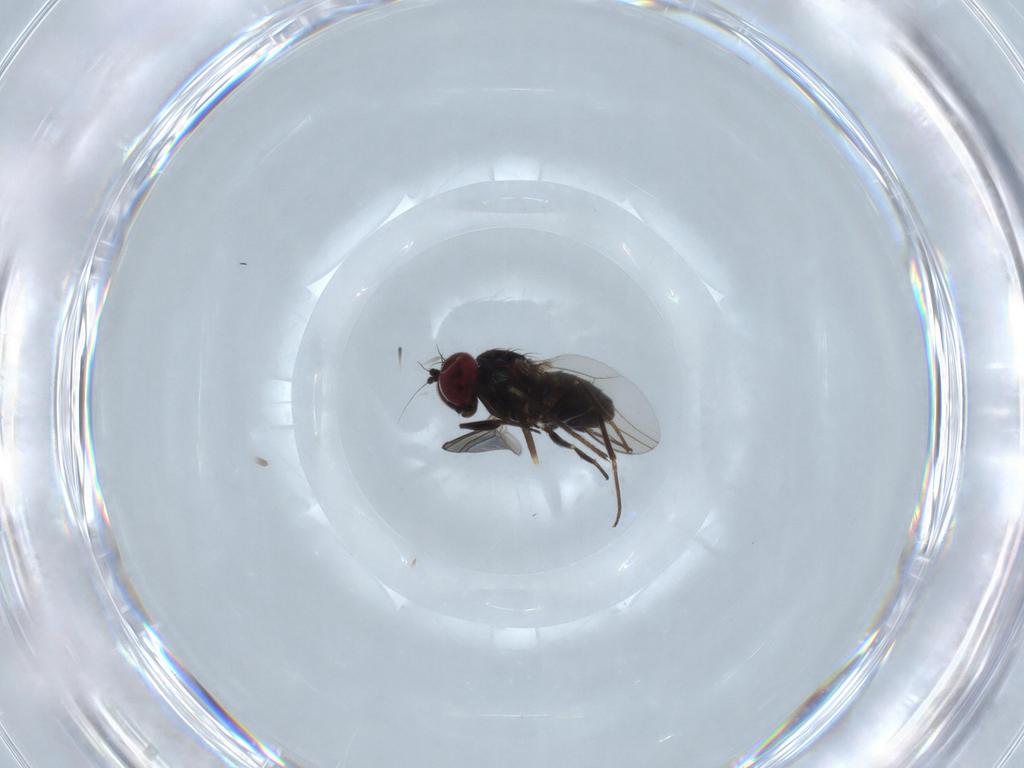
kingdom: Animalia
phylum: Arthropoda
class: Insecta
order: Diptera
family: Dolichopodidae
